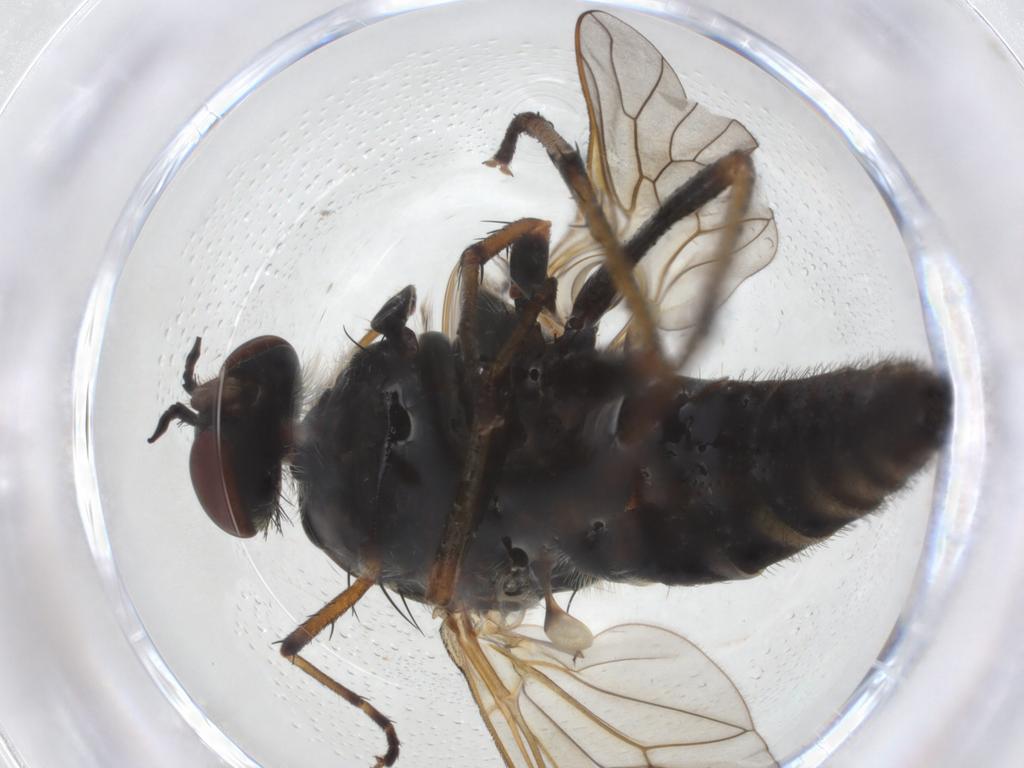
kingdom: Animalia
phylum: Arthropoda
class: Insecta
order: Diptera
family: Therevidae
